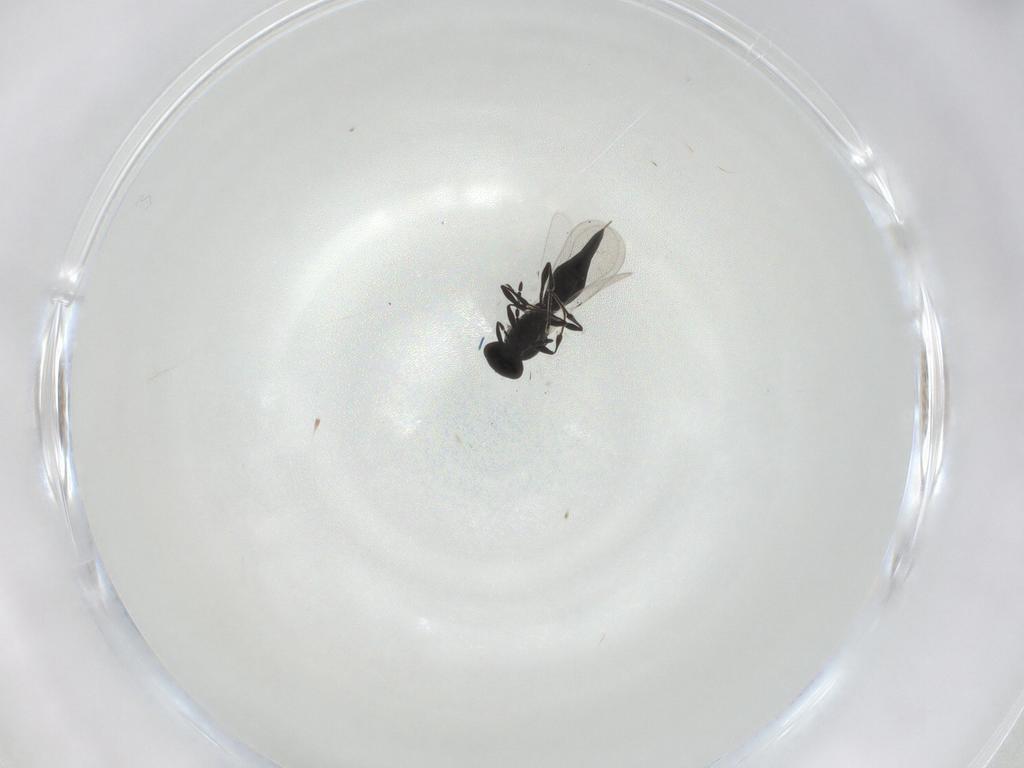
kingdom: Animalia
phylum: Arthropoda
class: Insecta
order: Hymenoptera
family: Platygastridae
